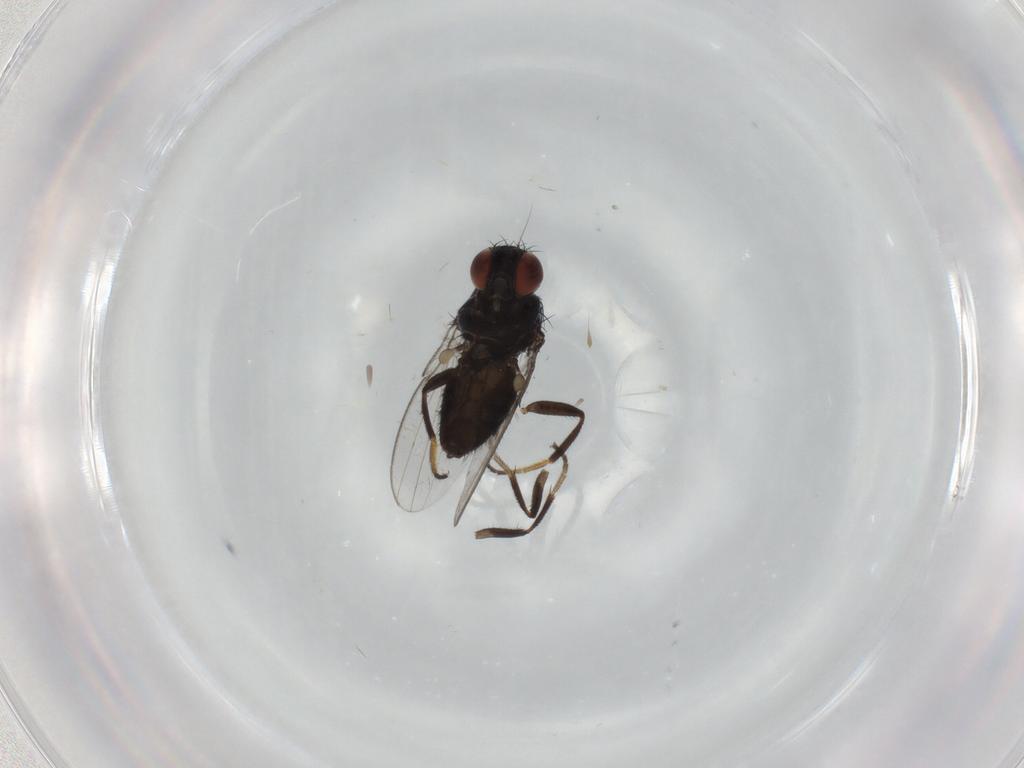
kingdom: Animalia
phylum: Arthropoda
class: Insecta
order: Diptera
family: Milichiidae
